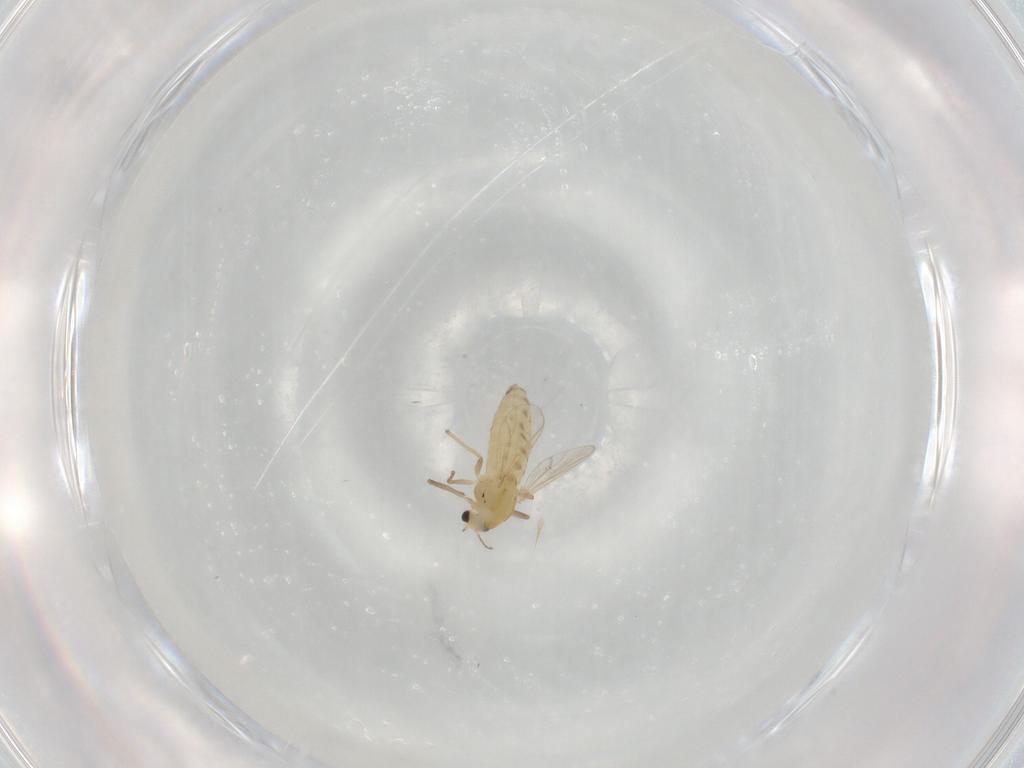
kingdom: Animalia
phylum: Arthropoda
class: Insecta
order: Diptera
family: Chironomidae
